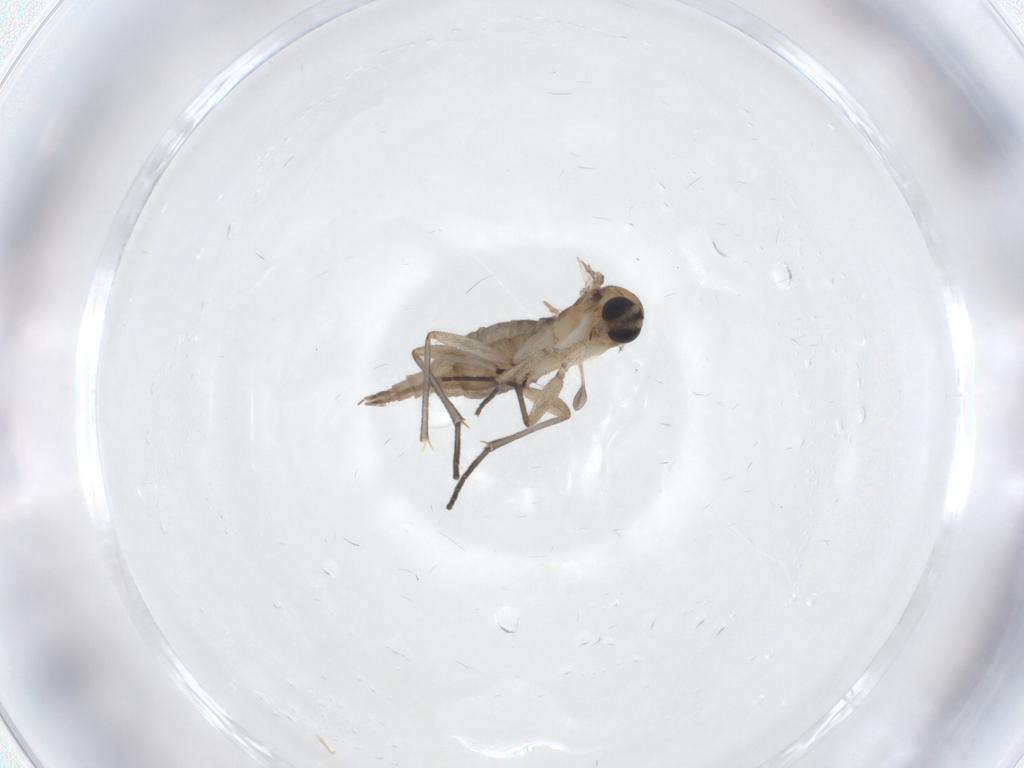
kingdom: Animalia
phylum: Arthropoda
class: Insecta
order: Diptera
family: Sciaridae
